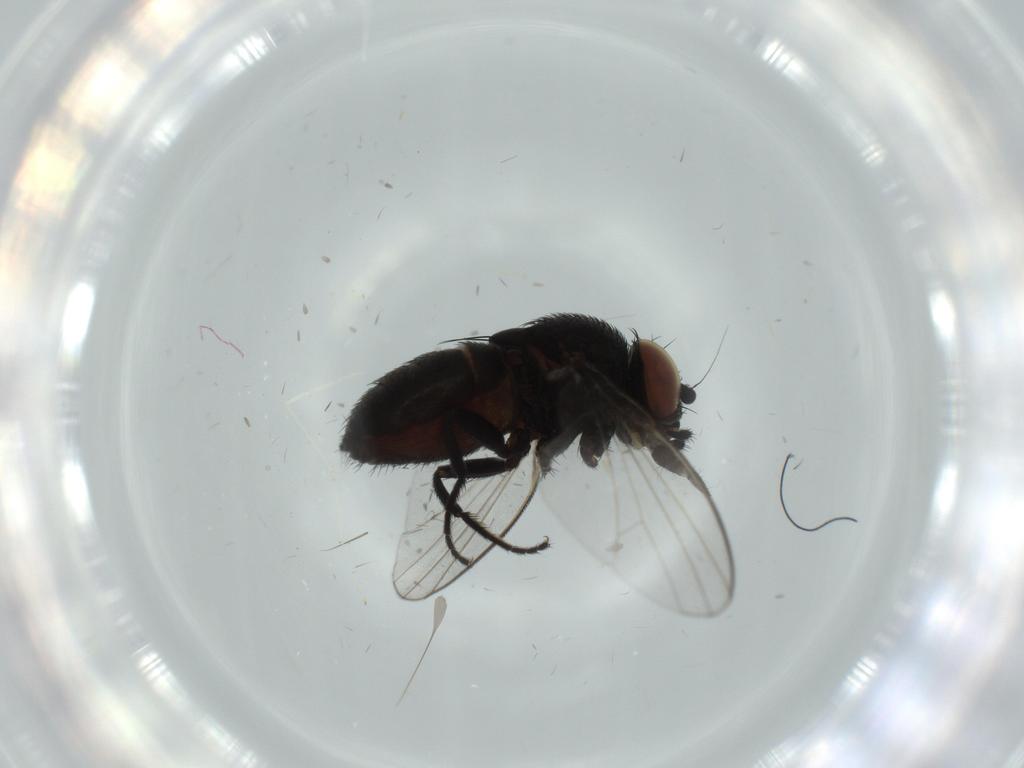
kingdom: Animalia
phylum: Arthropoda
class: Insecta
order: Diptera
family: Milichiidae
